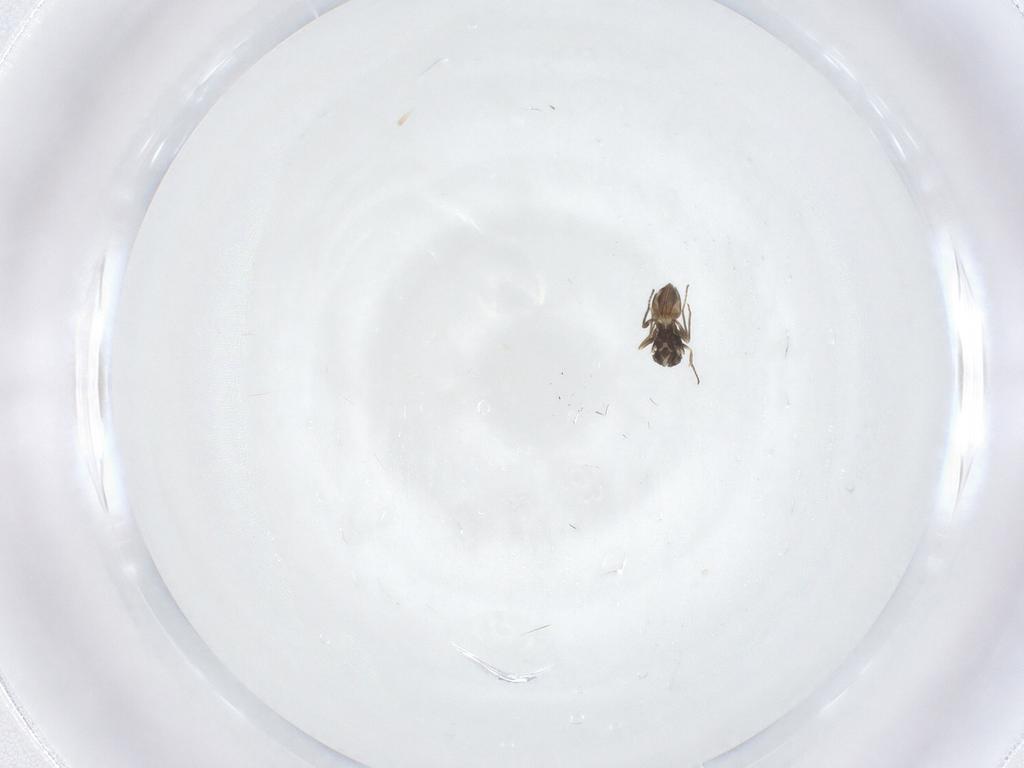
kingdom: Animalia
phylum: Arthropoda
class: Insecta
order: Hymenoptera
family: Mymaridae
